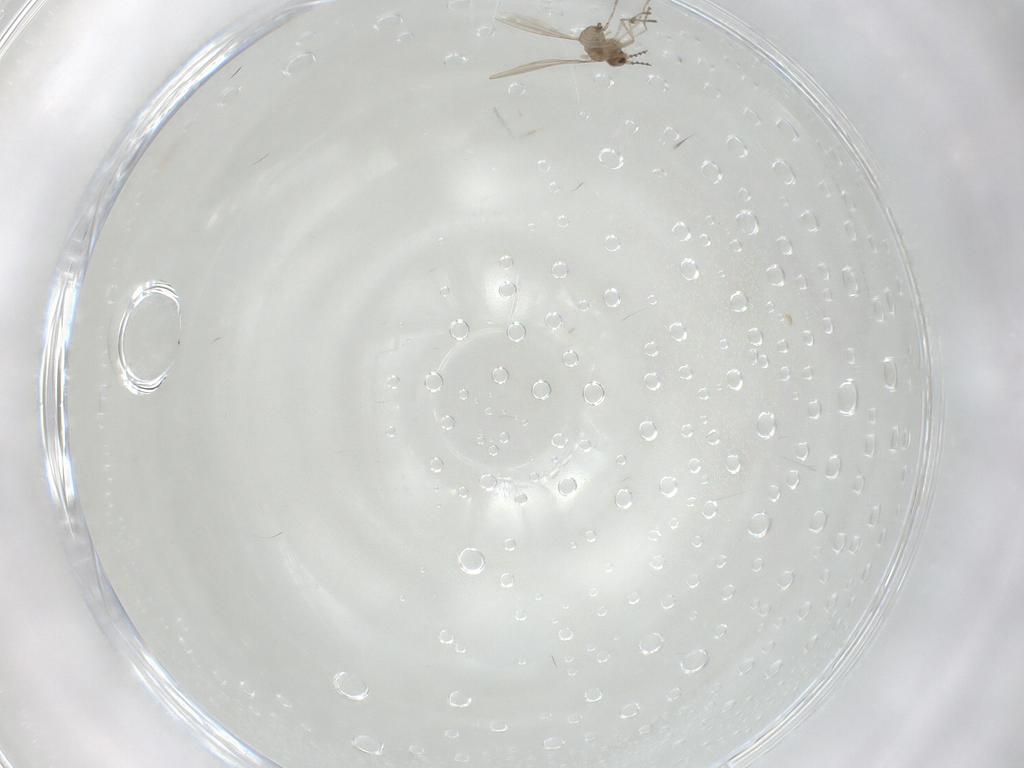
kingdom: Animalia
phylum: Arthropoda
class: Insecta
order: Diptera
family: Cecidomyiidae
